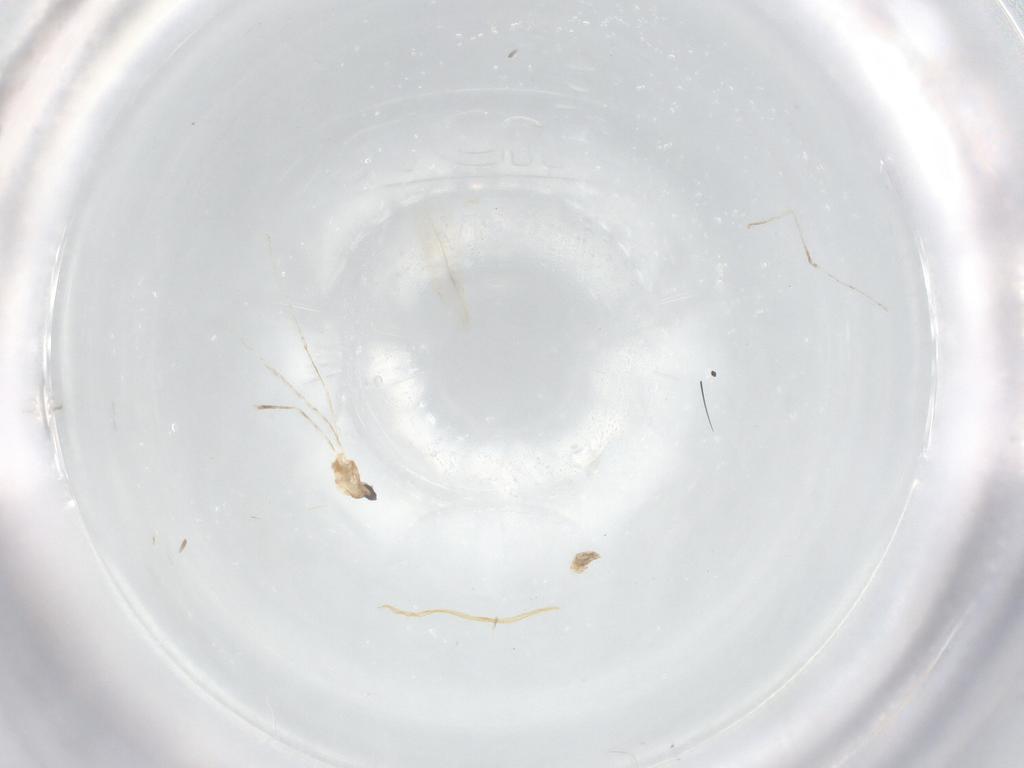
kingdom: Animalia
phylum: Arthropoda
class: Insecta
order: Diptera
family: Cecidomyiidae
